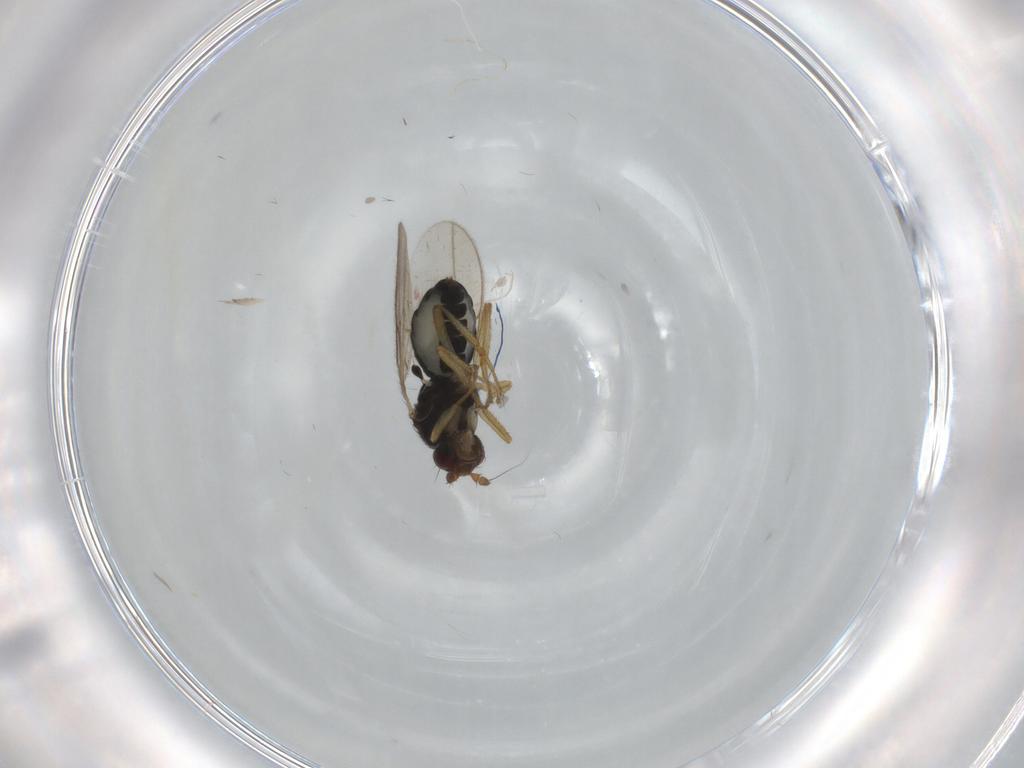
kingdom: Animalia
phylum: Arthropoda
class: Insecta
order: Diptera
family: Sphaeroceridae
